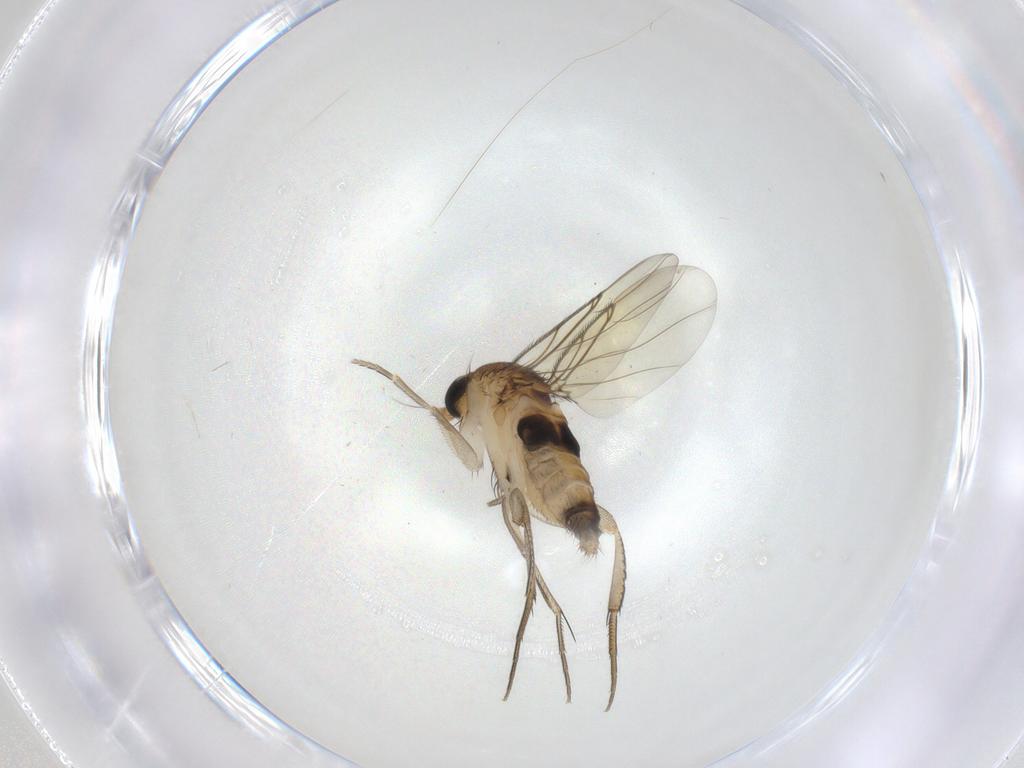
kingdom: Animalia
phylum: Arthropoda
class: Insecta
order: Diptera
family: Phoridae
